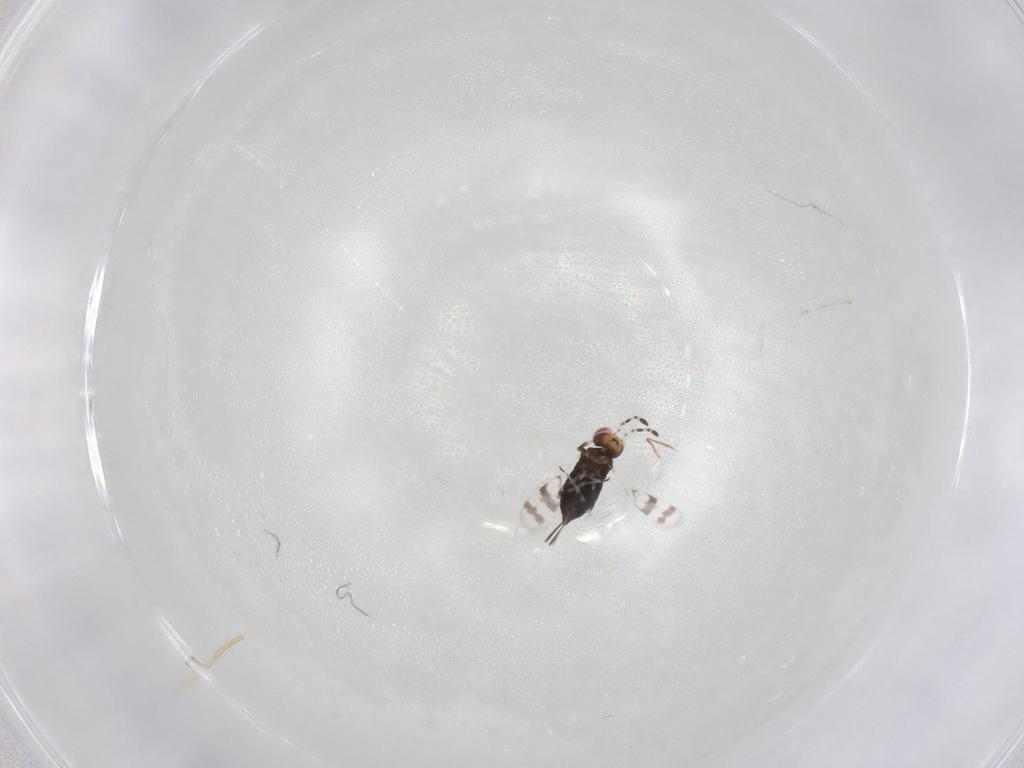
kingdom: Animalia
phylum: Arthropoda
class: Insecta
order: Hymenoptera
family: Azotidae
